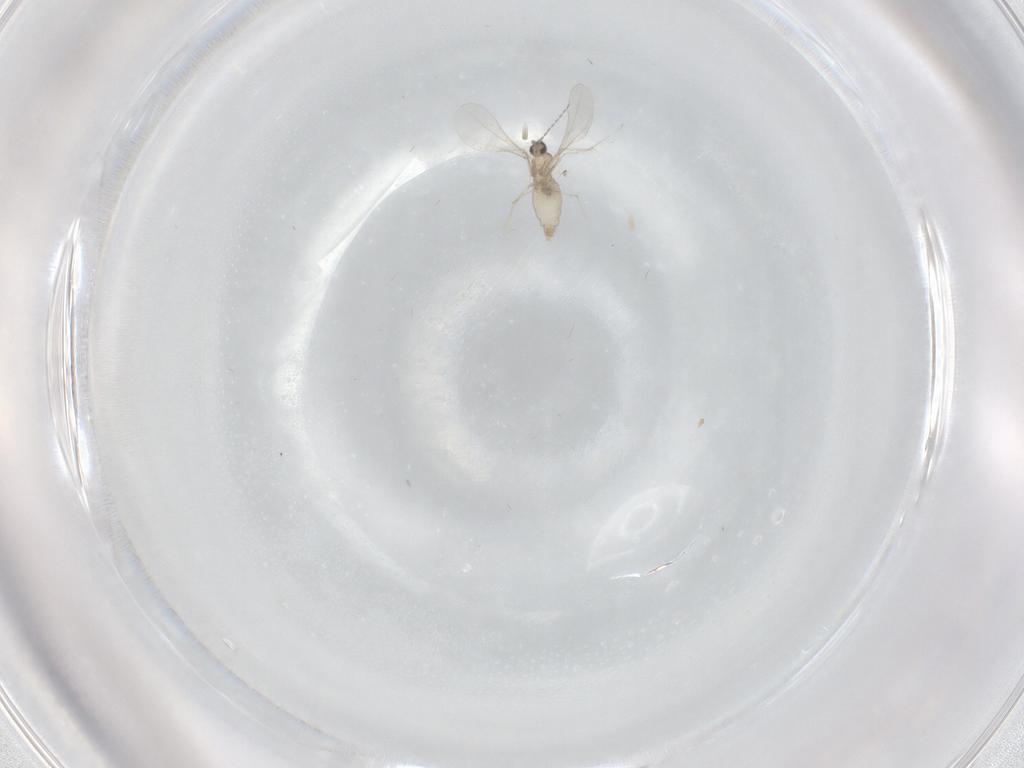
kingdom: Animalia
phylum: Arthropoda
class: Insecta
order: Diptera
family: Cecidomyiidae
